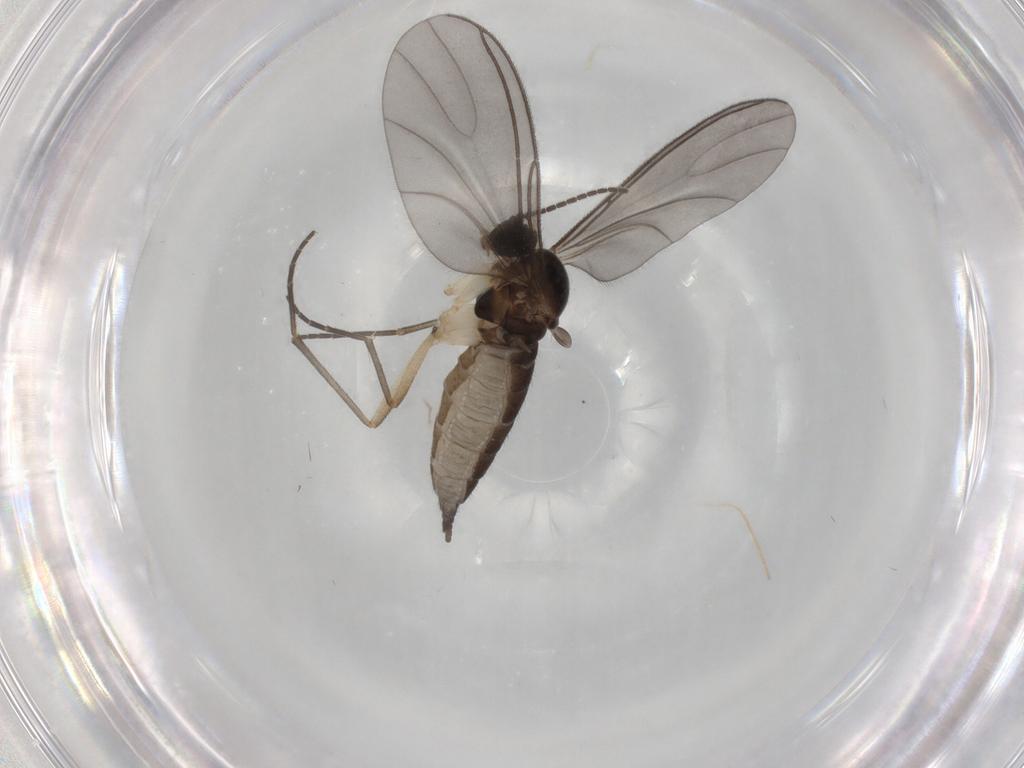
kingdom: Animalia
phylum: Arthropoda
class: Insecta
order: Diptera
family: Sciaridae
